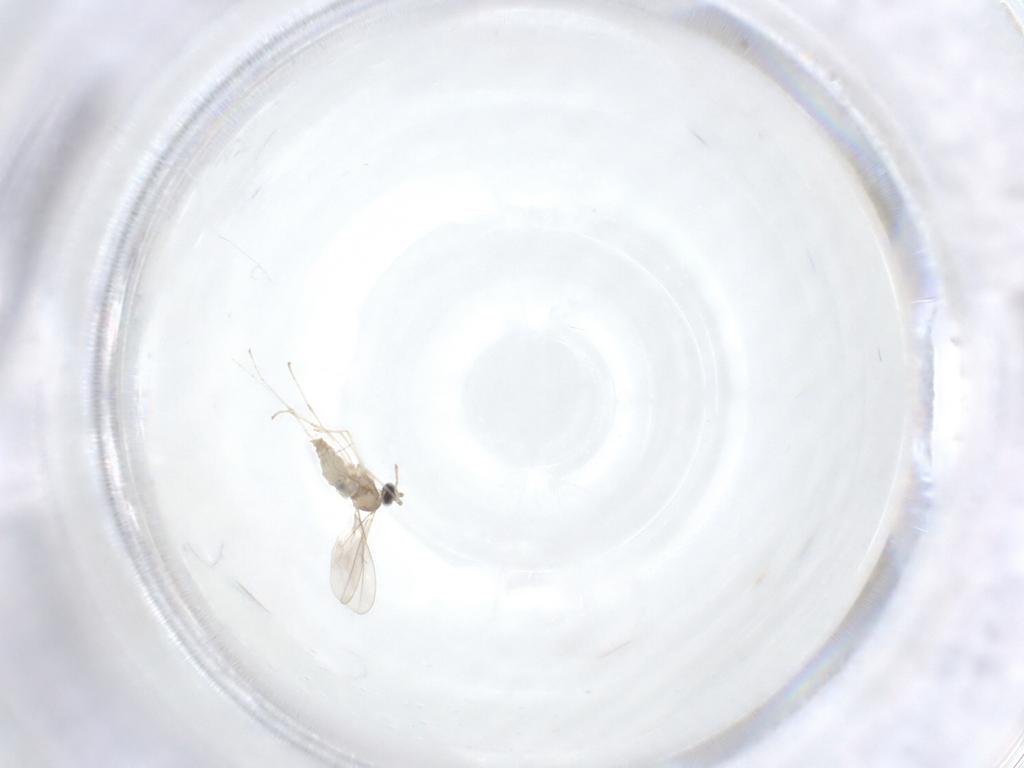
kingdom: Animalia
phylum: Arthropoda
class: Insecta
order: Diptera
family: Cecidomyiidae
